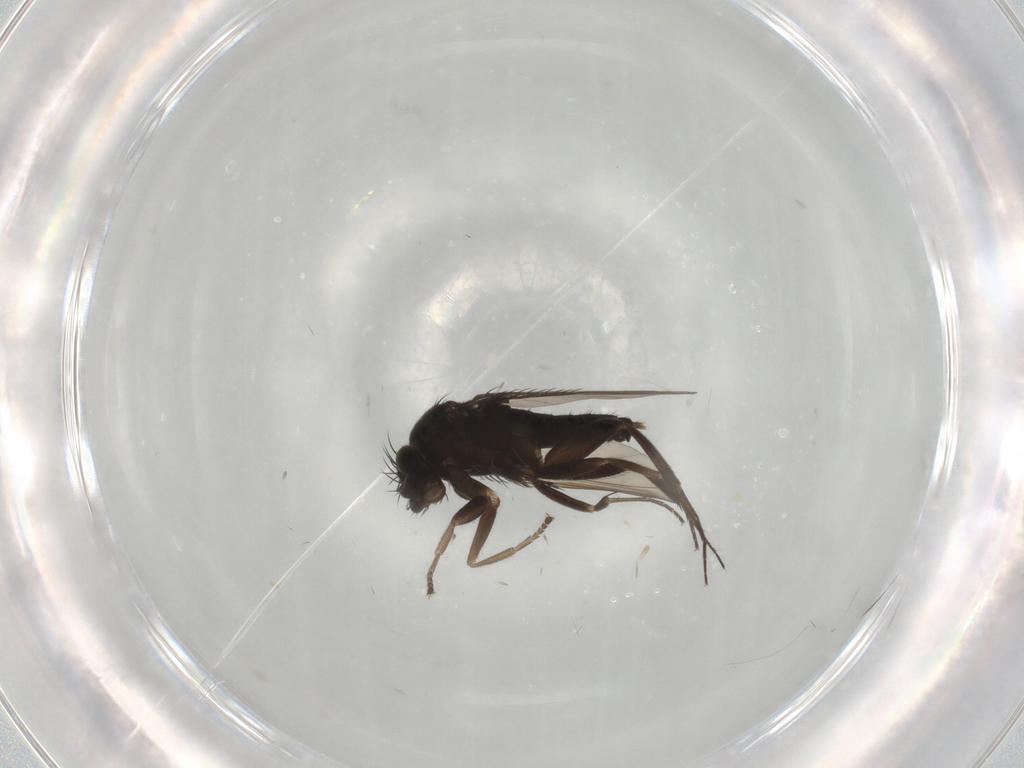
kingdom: Animalia
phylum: Arthropoda
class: Insecta
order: Diptera
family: Phoridae
